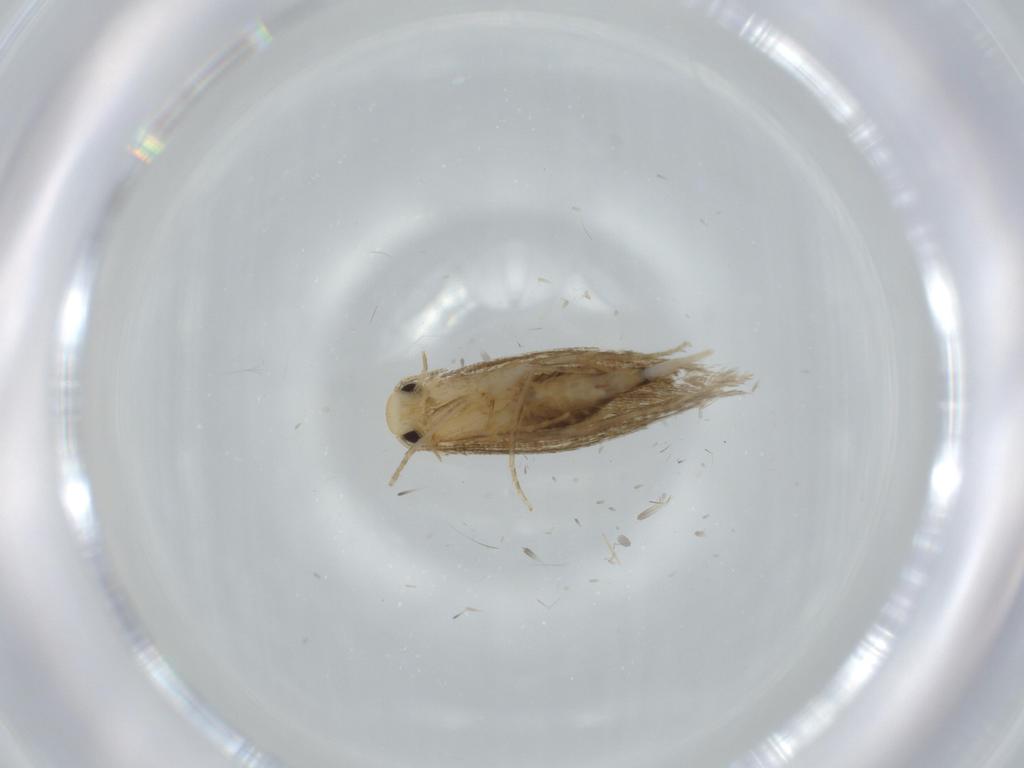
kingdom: Animalia
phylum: Arthropoda
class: Insecta
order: Lepidoptera
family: Tineidae
